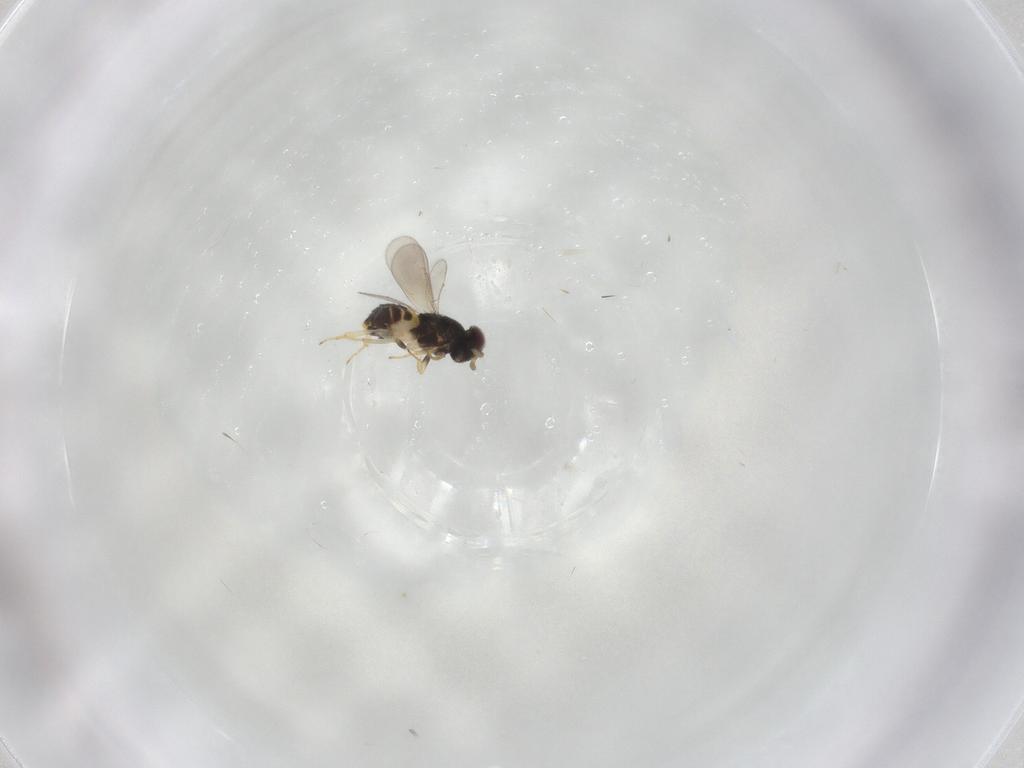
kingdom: Animalia
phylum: Arthropoda
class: Insecta
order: Hymenoptera
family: Aphelinidae
